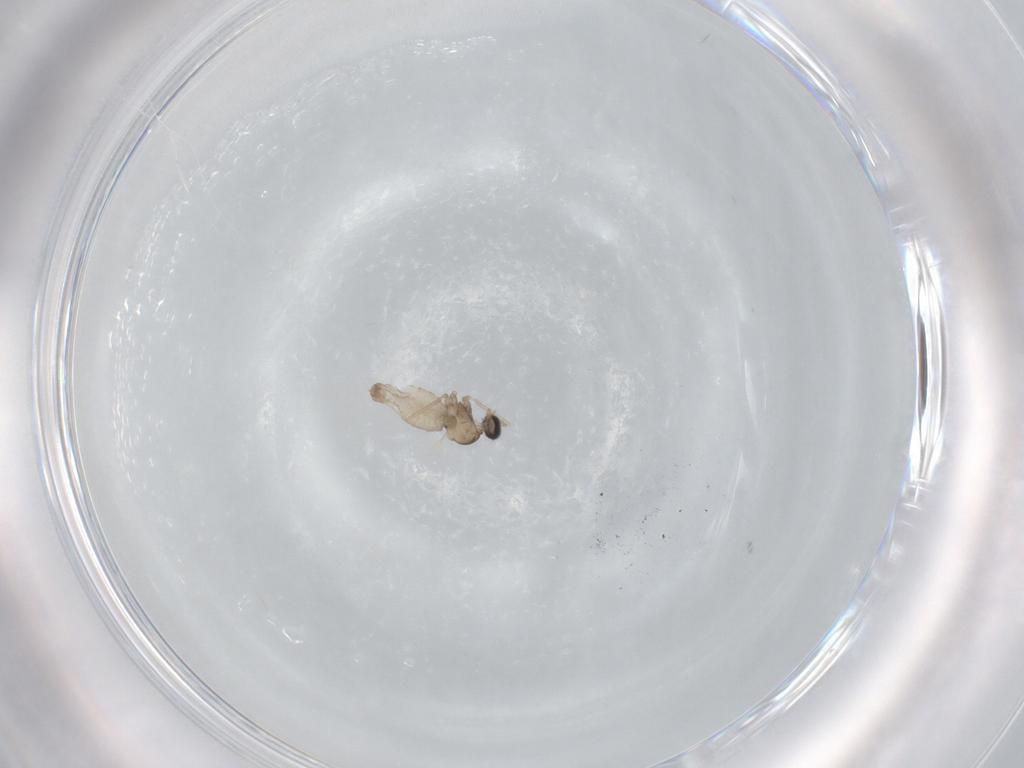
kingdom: Animalia
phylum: Arthropoda
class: Insecta
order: Diptera
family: Cecidomyiidae
